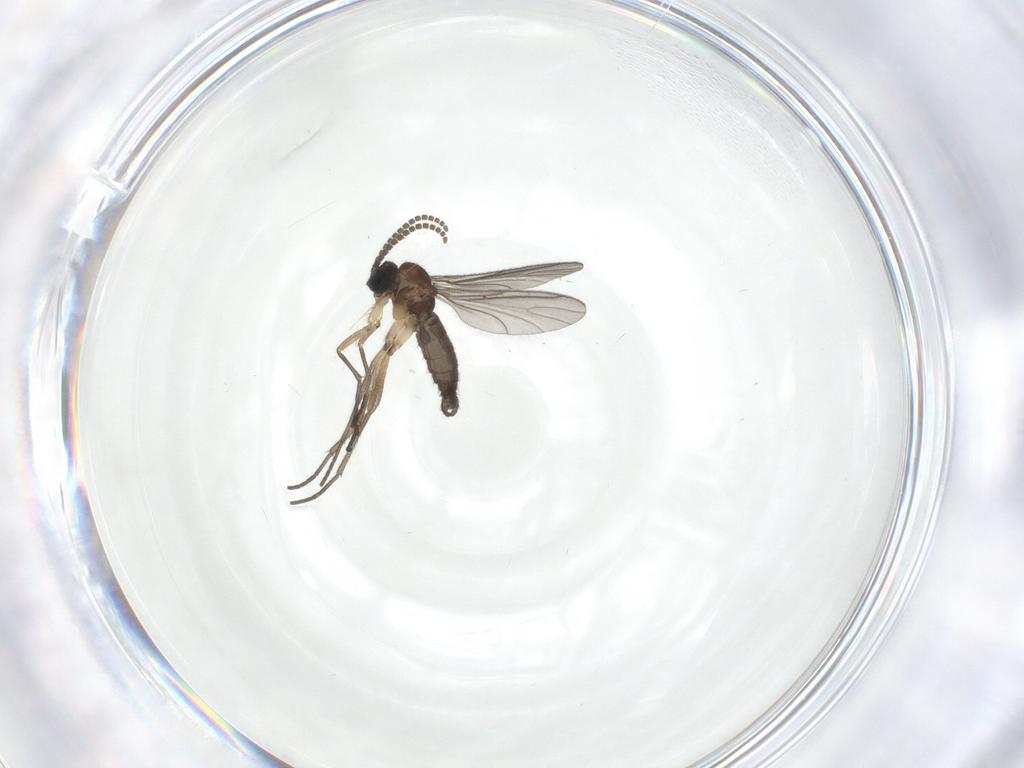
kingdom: Animalia
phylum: Arthropoda
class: Insecta
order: Diptera
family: Sciaridae
